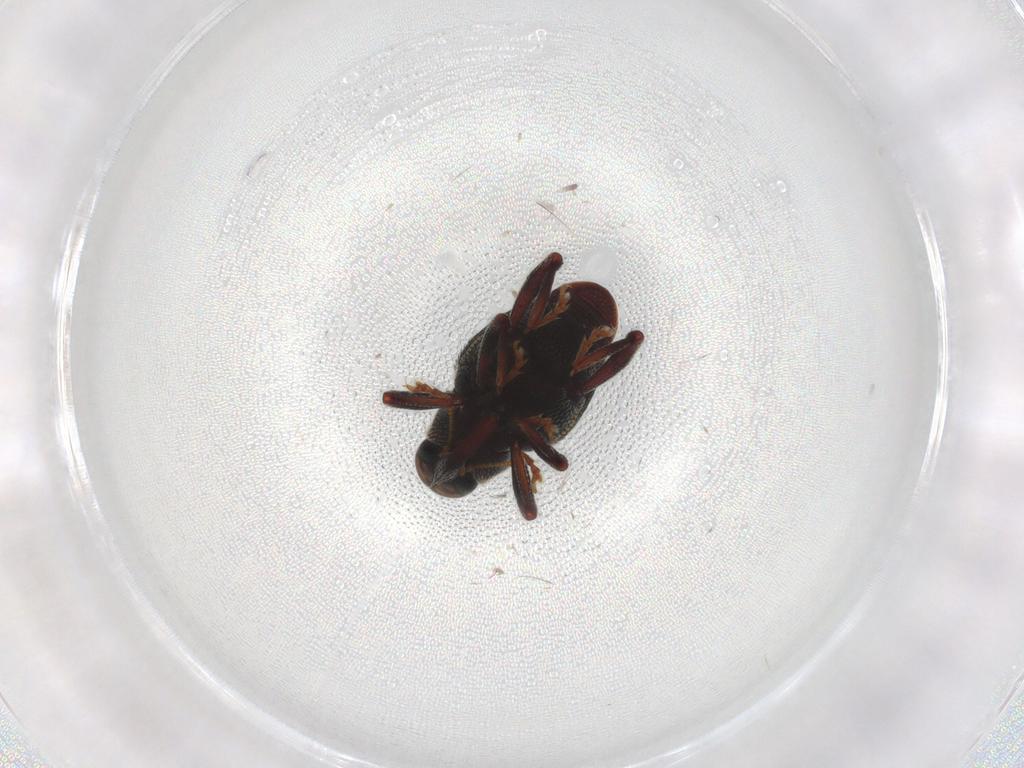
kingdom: Animalia
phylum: Arthropoda
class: Insecta
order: Coleoptera
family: Curculionidae
